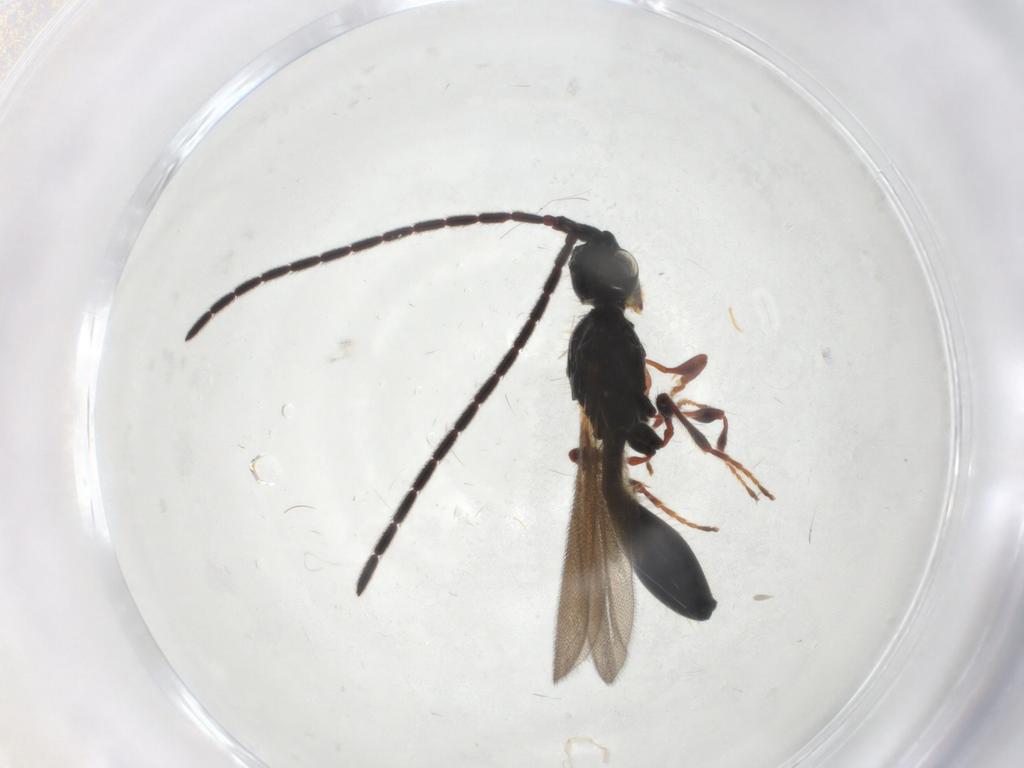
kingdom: Animalia
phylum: Arthropoda
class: Insecta
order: Hymenoptera
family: Diapriidae
